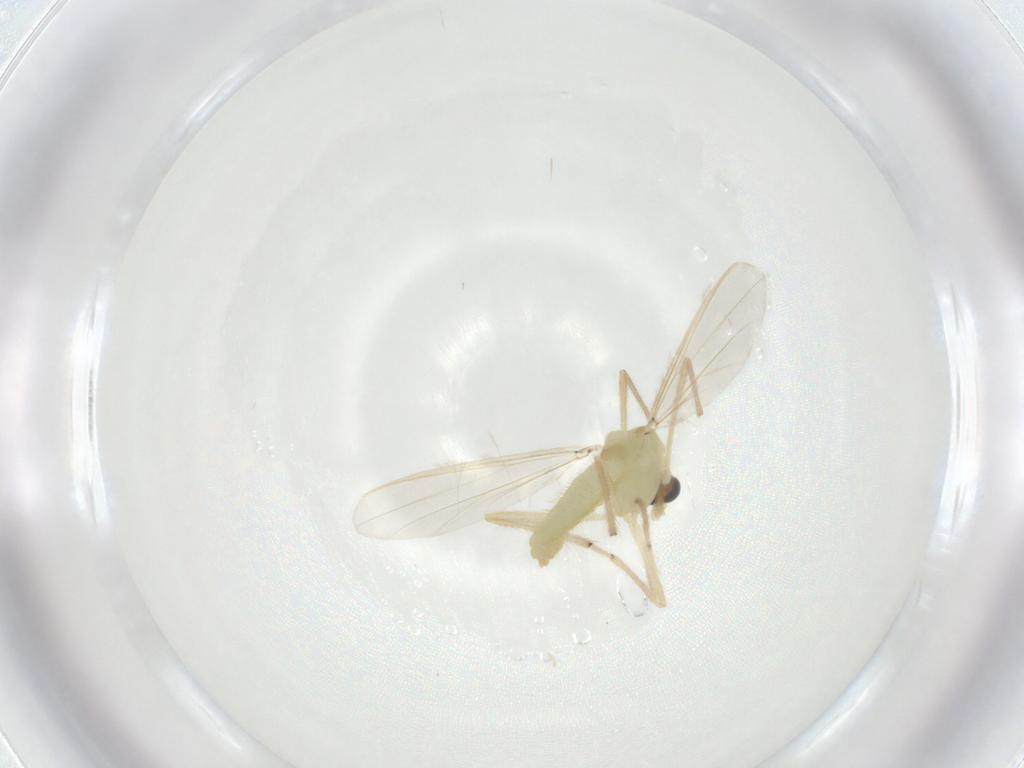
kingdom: Animalia
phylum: Arthropoda
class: Insecta
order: Diptera
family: Chironomidae
